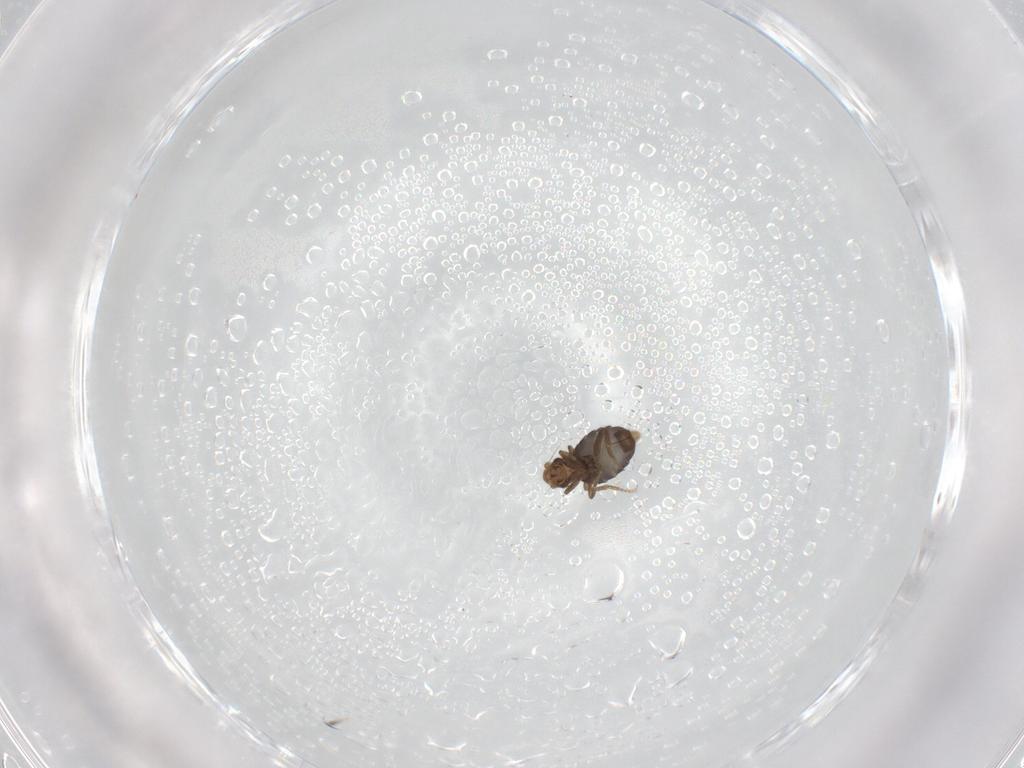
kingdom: Animalia
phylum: Arthropoda
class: Insecta
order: Diptera
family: Phoridae
